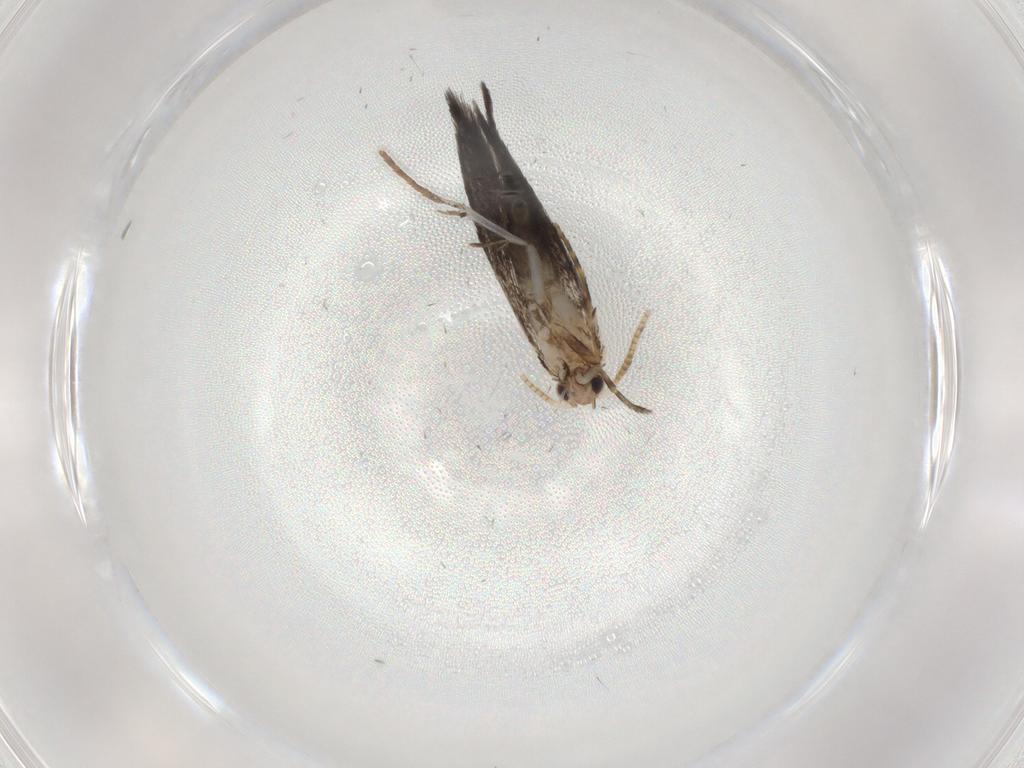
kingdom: Animalia
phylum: Arthropoda
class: Insecta
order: Lepidoptera
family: Tineidae
